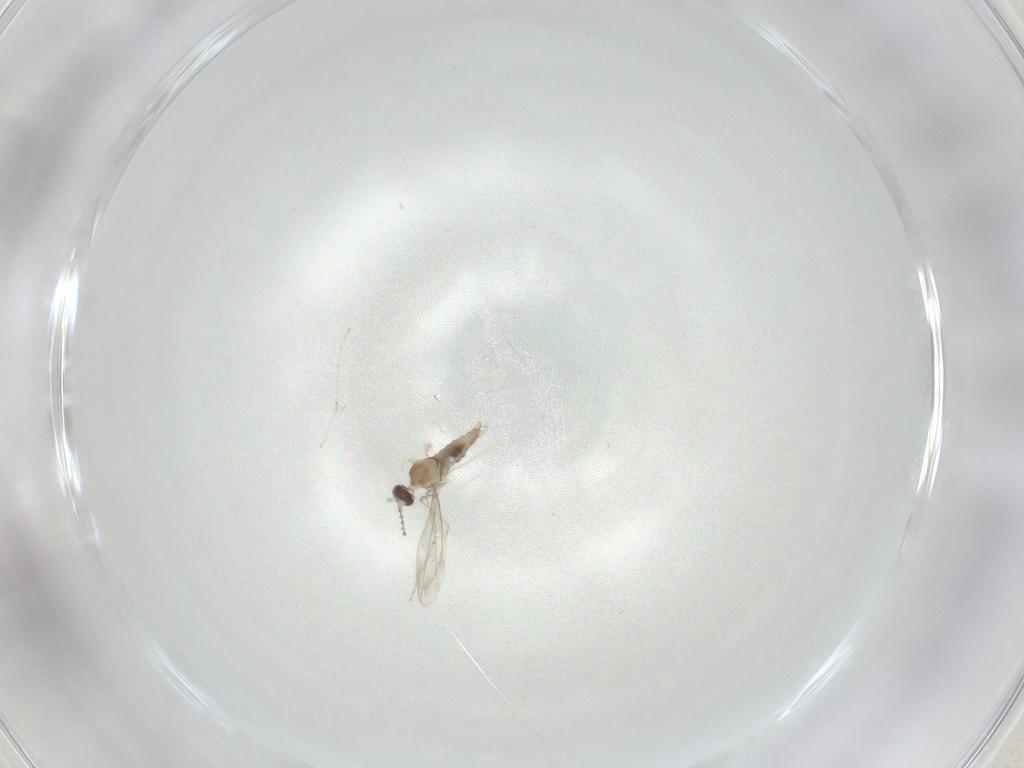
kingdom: Animalia
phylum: Arthropoda
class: Insecta
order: Diptera
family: Cecidomyiidae
